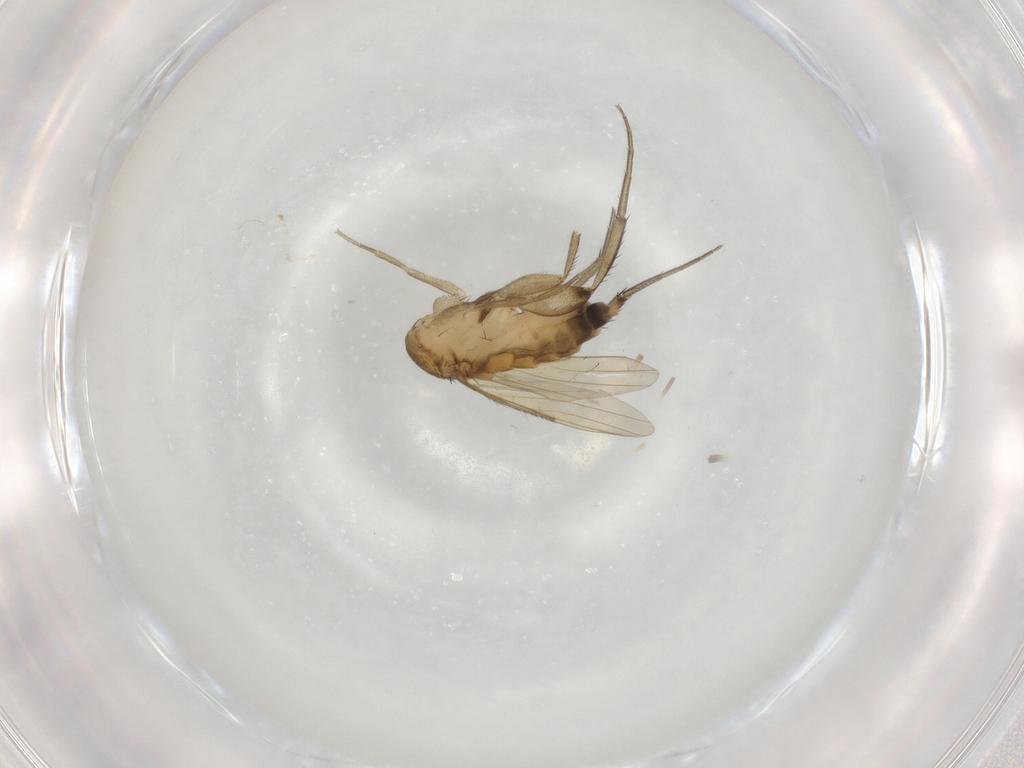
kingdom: Animalia
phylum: Arthropoda
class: Insecta
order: Diptera
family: Phoridae
